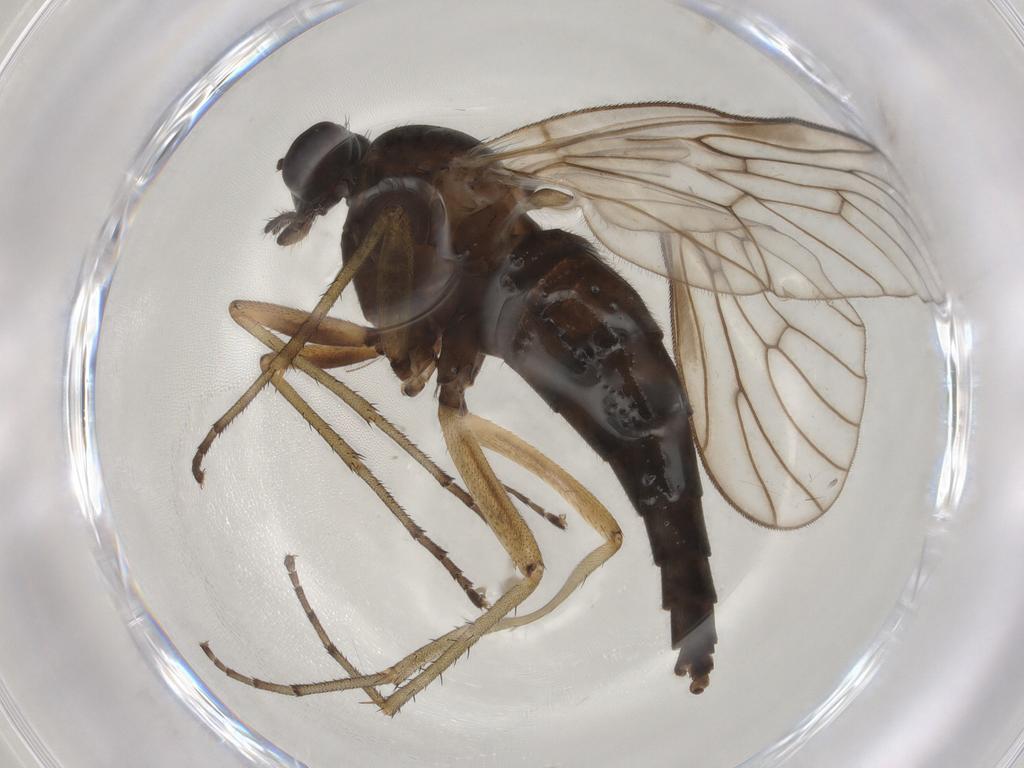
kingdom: Animalia
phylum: Arthropoda
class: Insecta
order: Diptera
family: Rhagionidae
